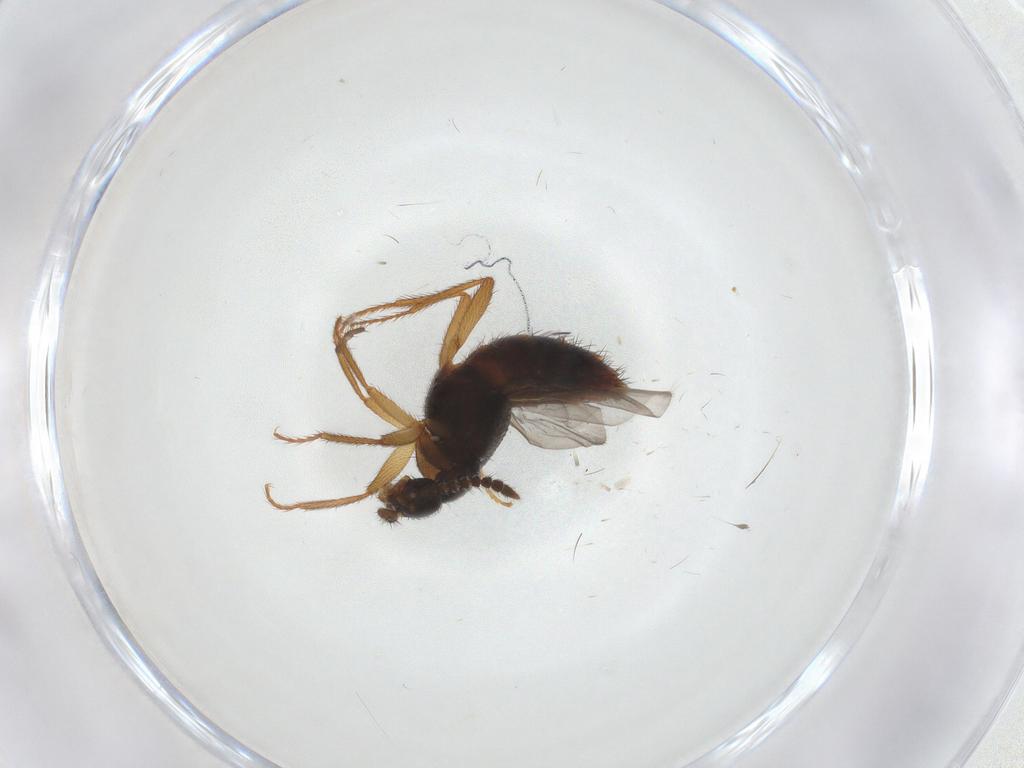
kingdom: Animalia
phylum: Arthropoda
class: Insecta
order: Coleoptera
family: Staphylinidae
